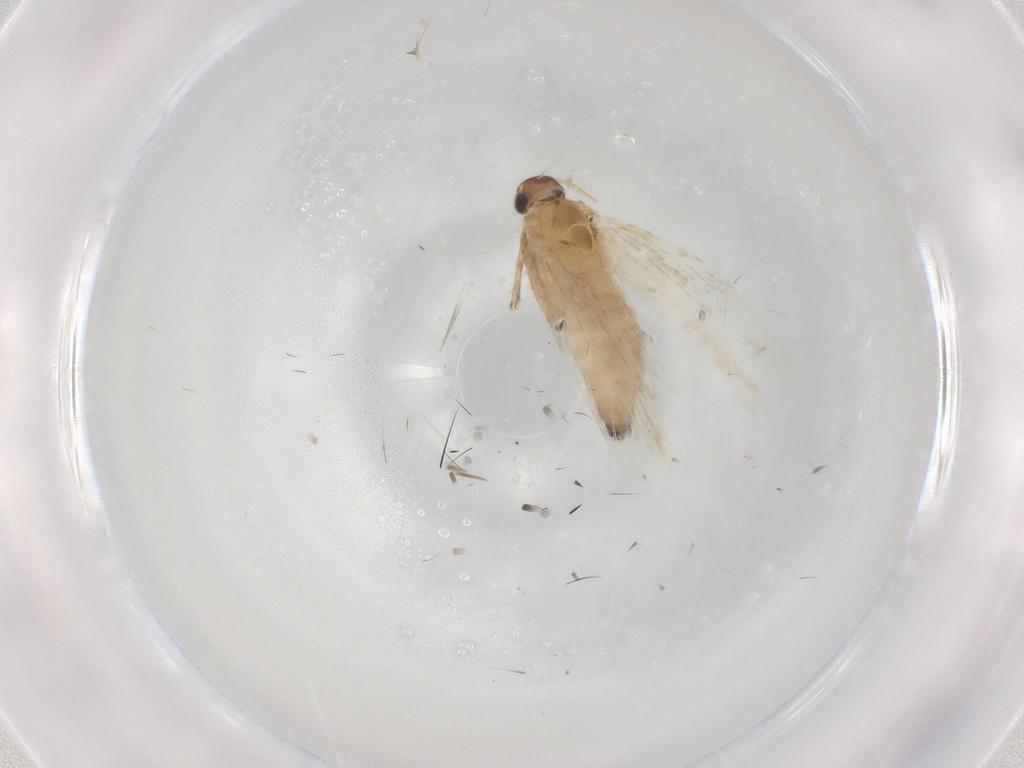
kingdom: Animalia
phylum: Arthropoda
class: Insecta
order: Lepidoptera
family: Gelechiidae
